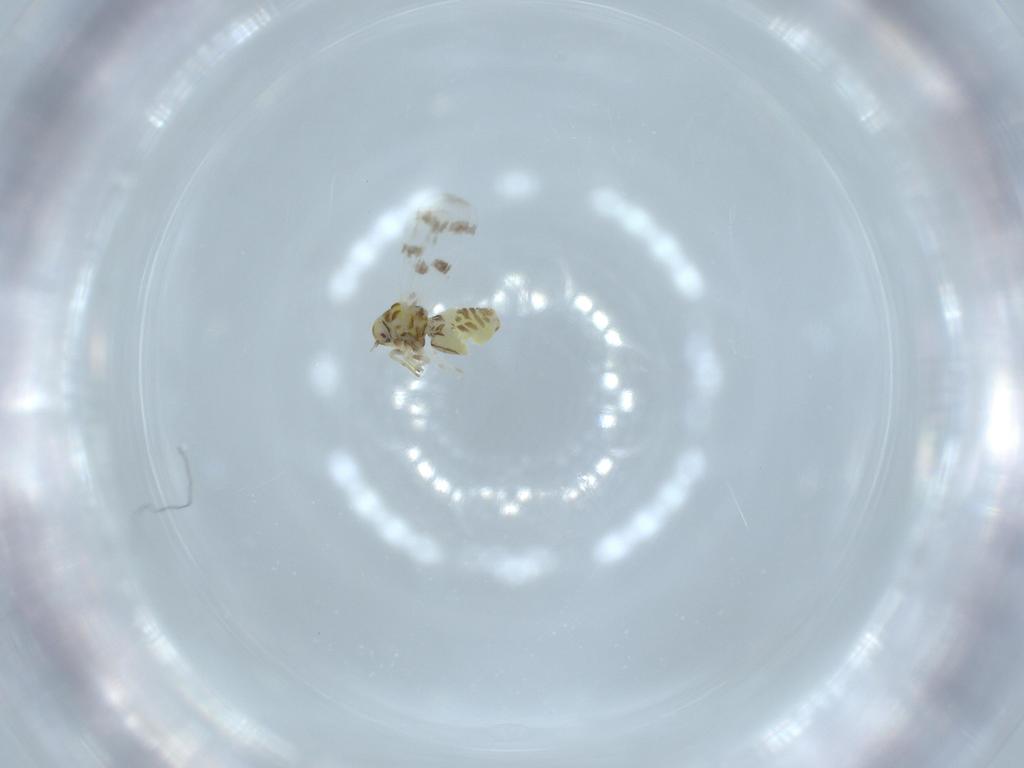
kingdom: Animalia
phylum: Arthropoda
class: Insecta
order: Hemiptera
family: Aleyrodidae
